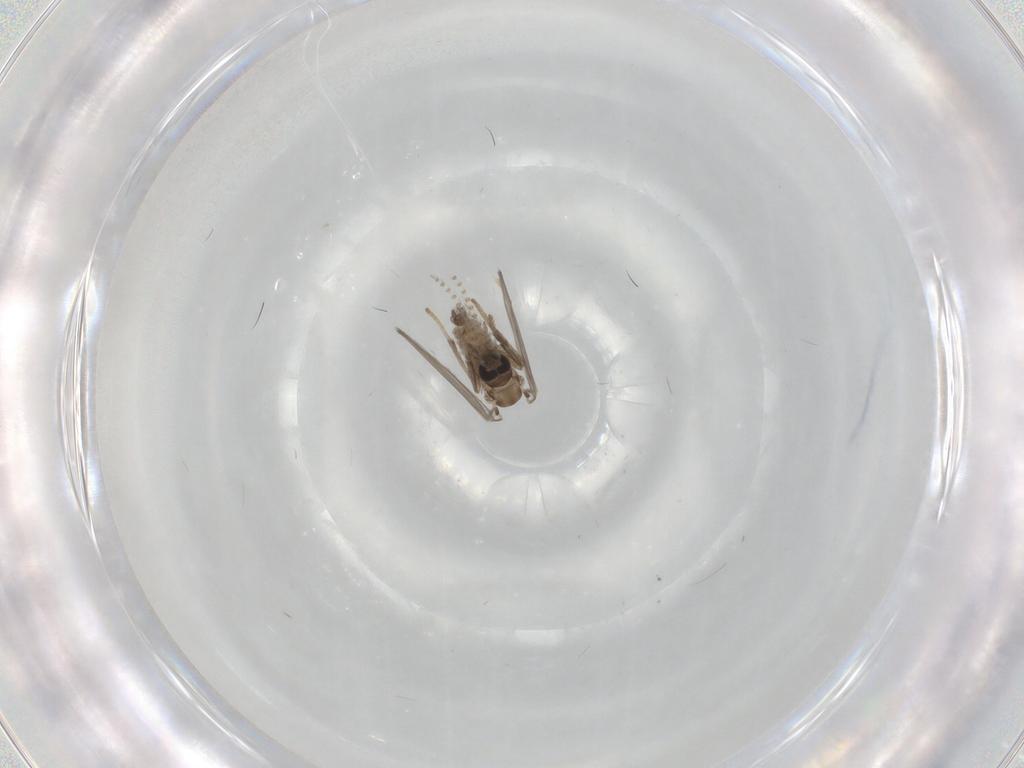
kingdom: Animalia
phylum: Arthropoda
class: Insecta
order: Diptera
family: Psychodidae
